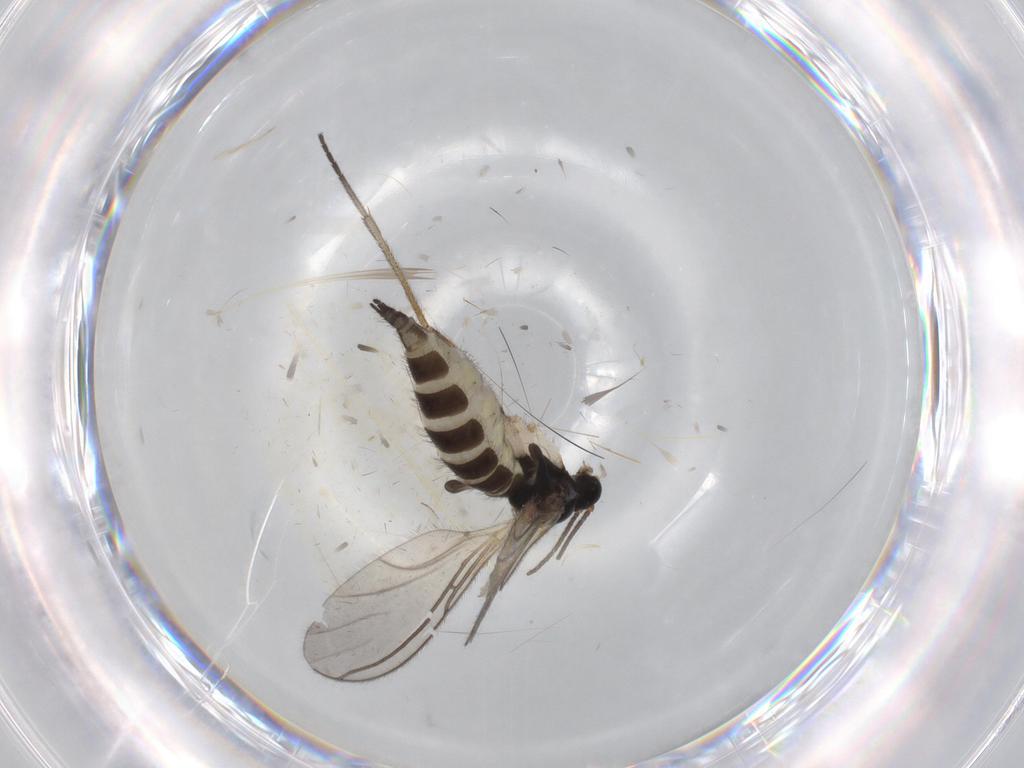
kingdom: Animalia
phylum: Arthropoda
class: Insecta
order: Diptera
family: Sciaridae
